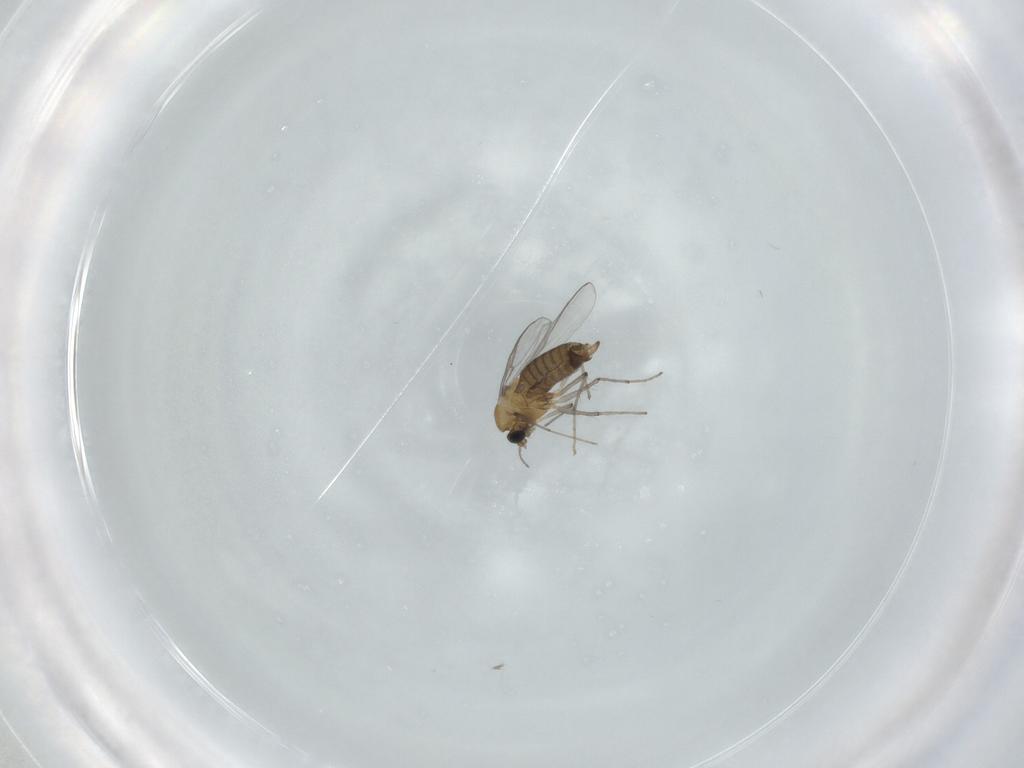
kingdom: Animalia
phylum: Arthropoda
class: Insecta
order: Diptera
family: Chironomidae
